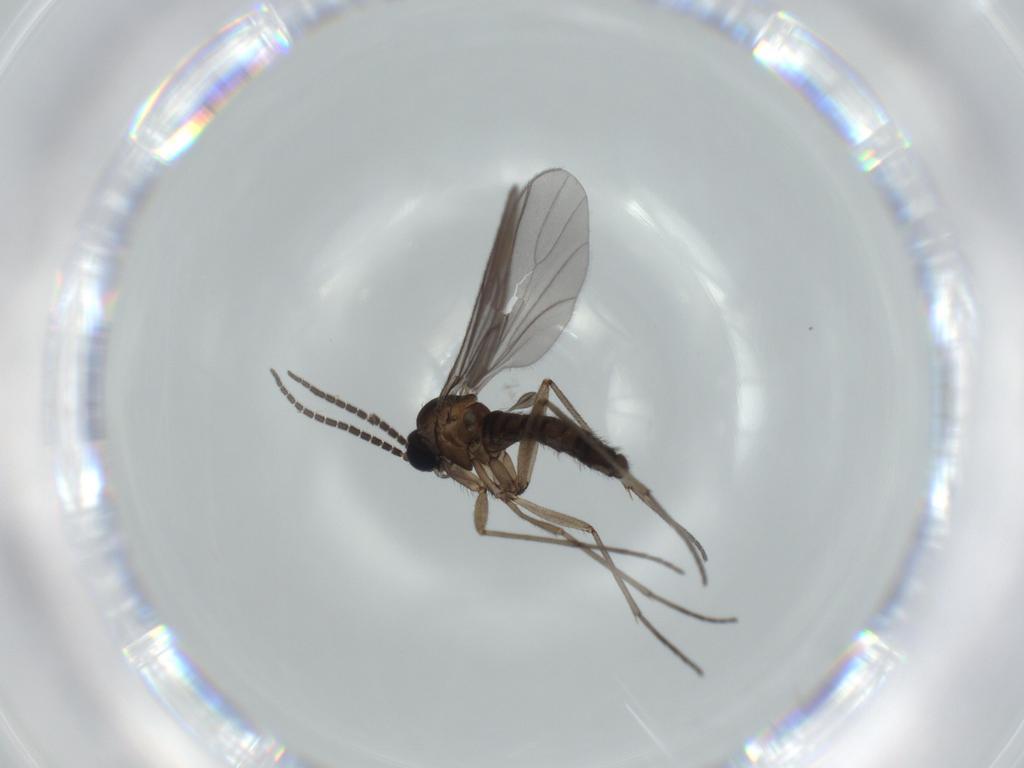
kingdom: Animalia
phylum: Arthropoda
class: Insecta
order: Diptera
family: Sciaridae
